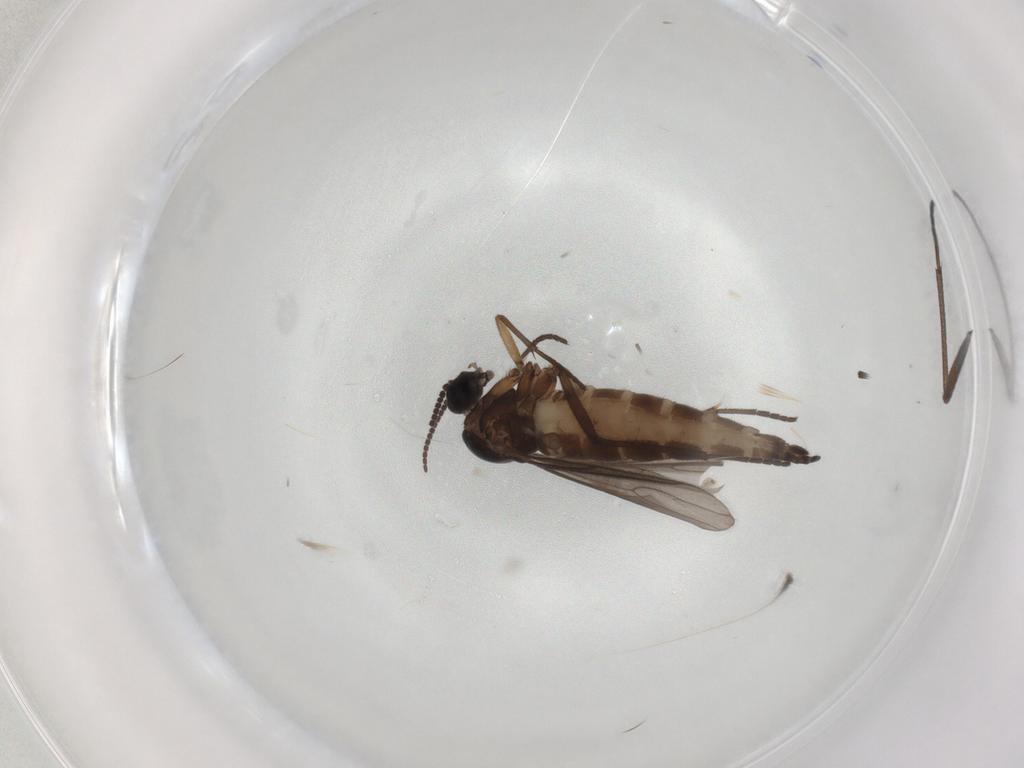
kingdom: Animalia
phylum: Arthropoda
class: Insecta
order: Diptera
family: Sciaridae
